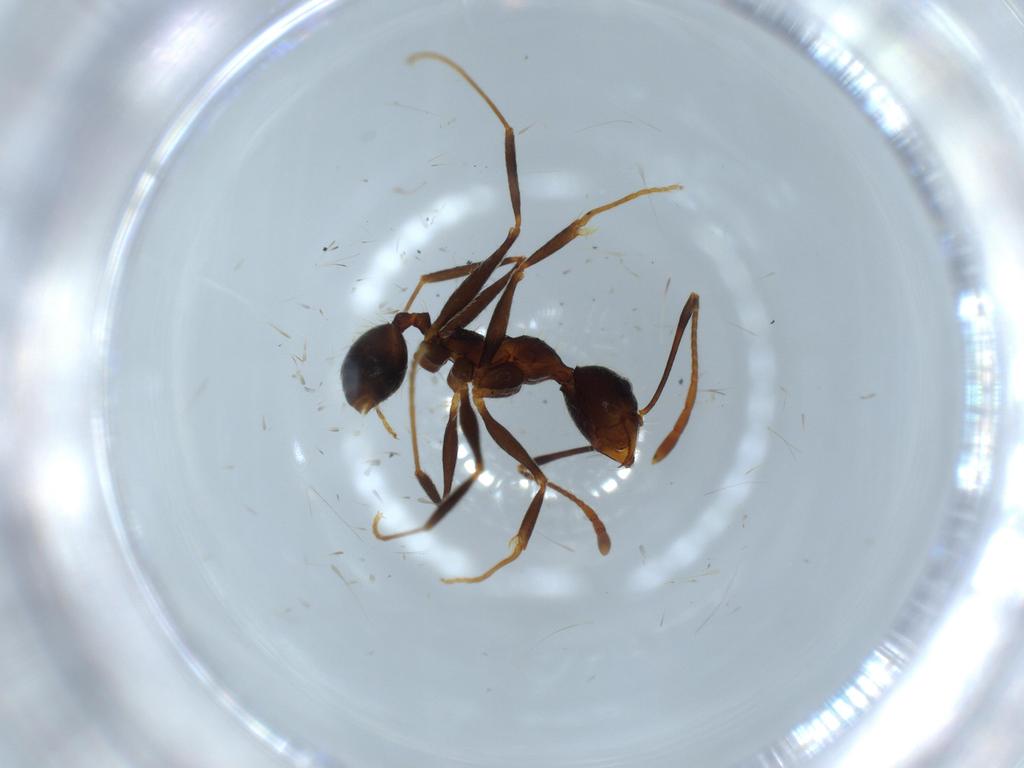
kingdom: Animalia
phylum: Arthropoda
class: Insecta
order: Hymenoptera
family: Formicidae
